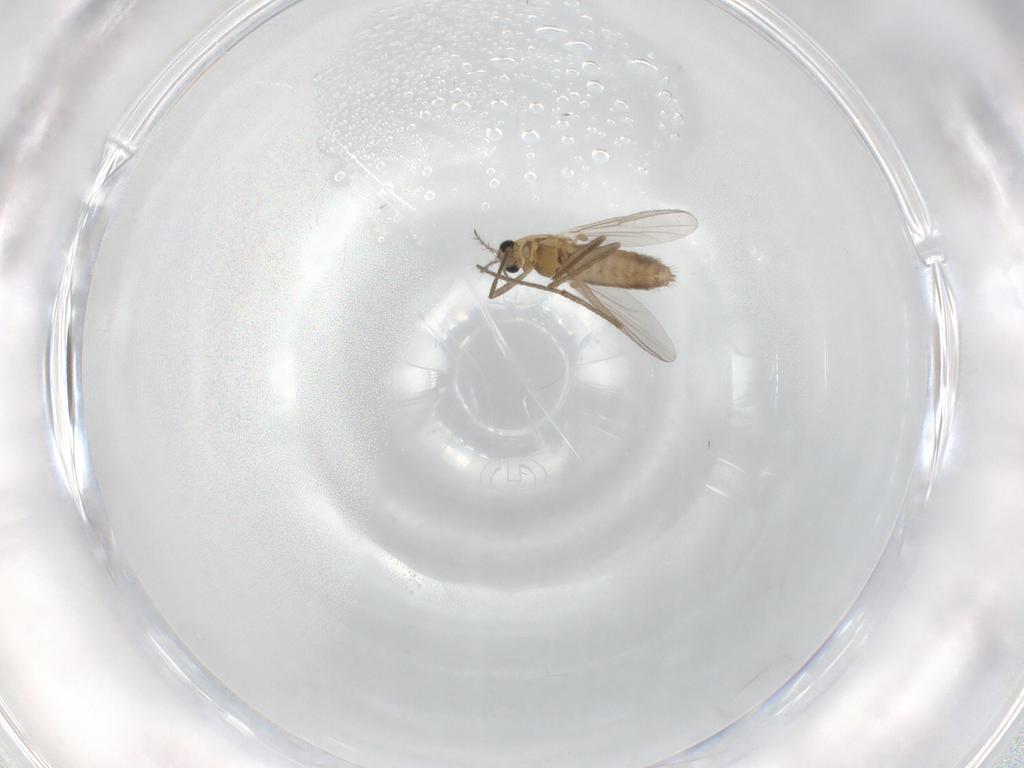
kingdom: Animalia
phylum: Arthropoda
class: Insecta
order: Diptera
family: Chironomidae
